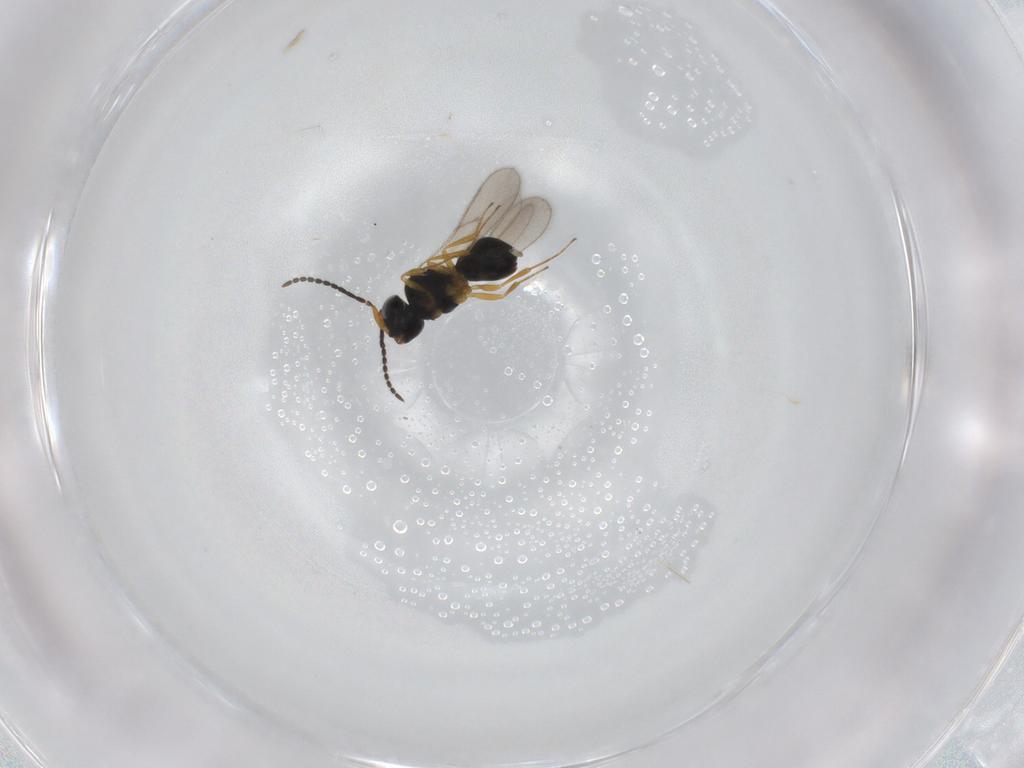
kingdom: Animalia
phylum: Arthropoda
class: Insecta
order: Hymenoptera
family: Scelionidae
